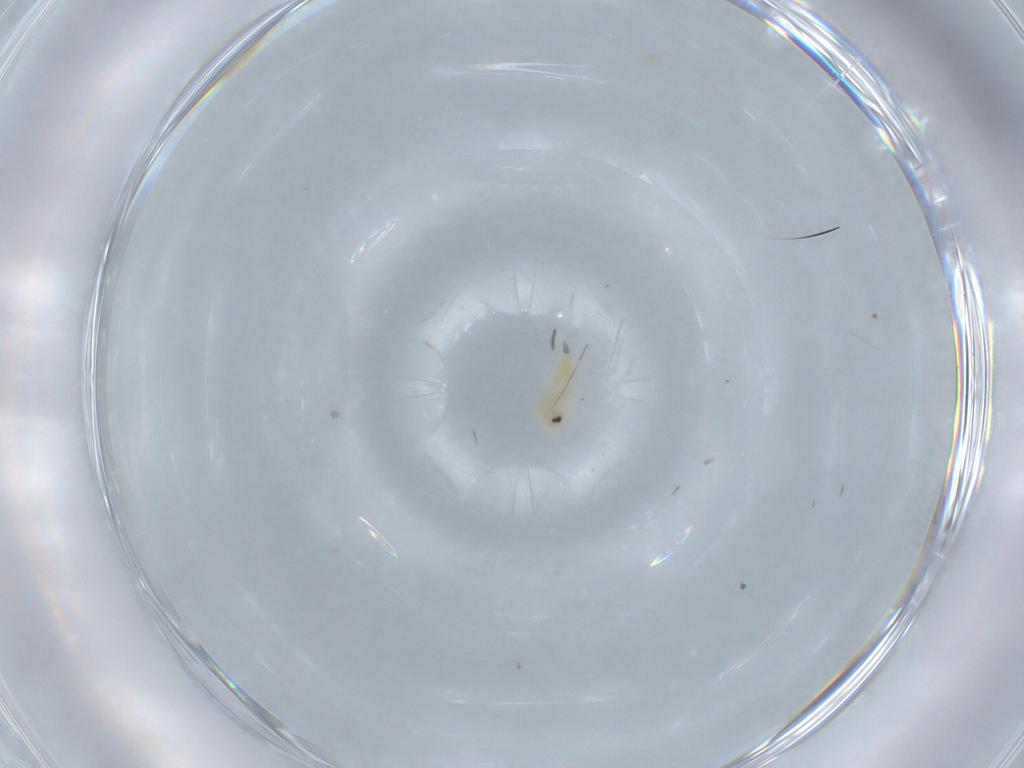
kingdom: Animalia
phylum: Arthropoda
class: Insecta
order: Hemiptera
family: Aleyrodidae
